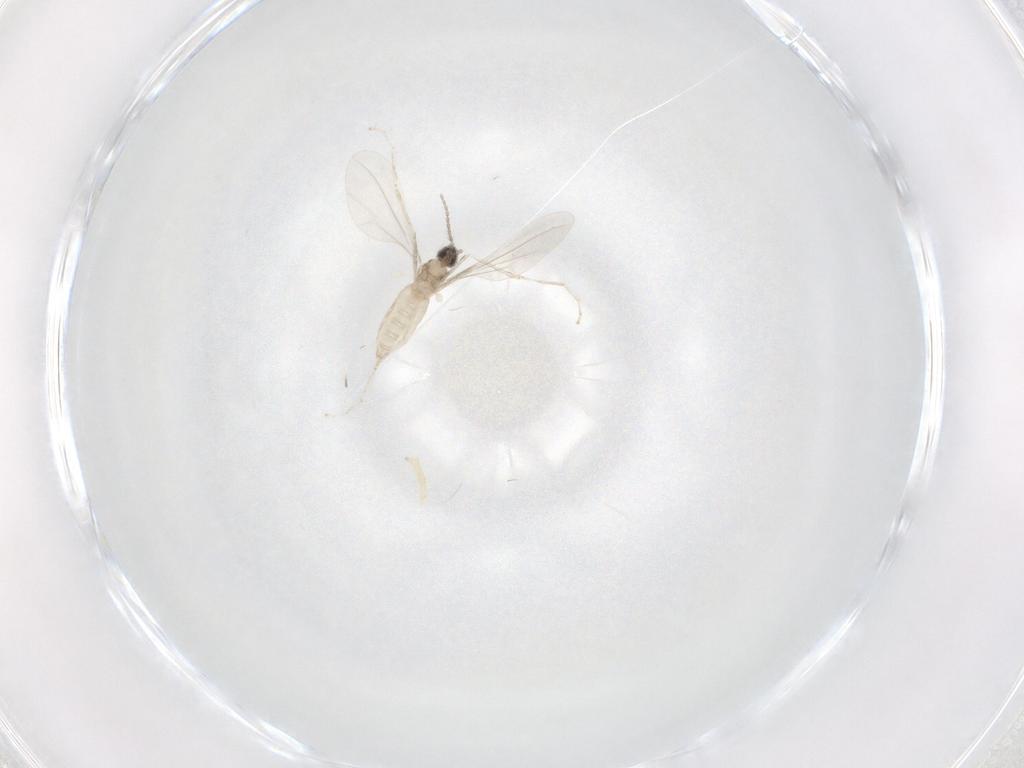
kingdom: Animalia
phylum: Arthropoda
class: Insecta
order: Diptera
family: Cecidomyiidae
